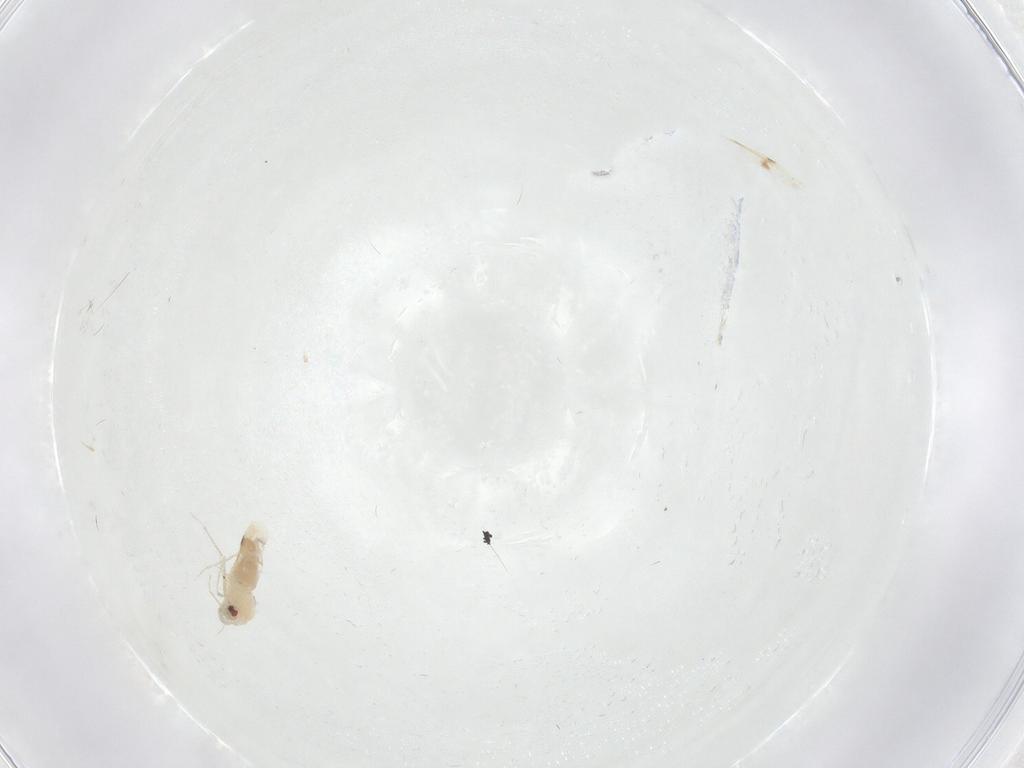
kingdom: Animalia
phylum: Arthropoda
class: Insecta
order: Hemiptera
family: Aleyrodidae
